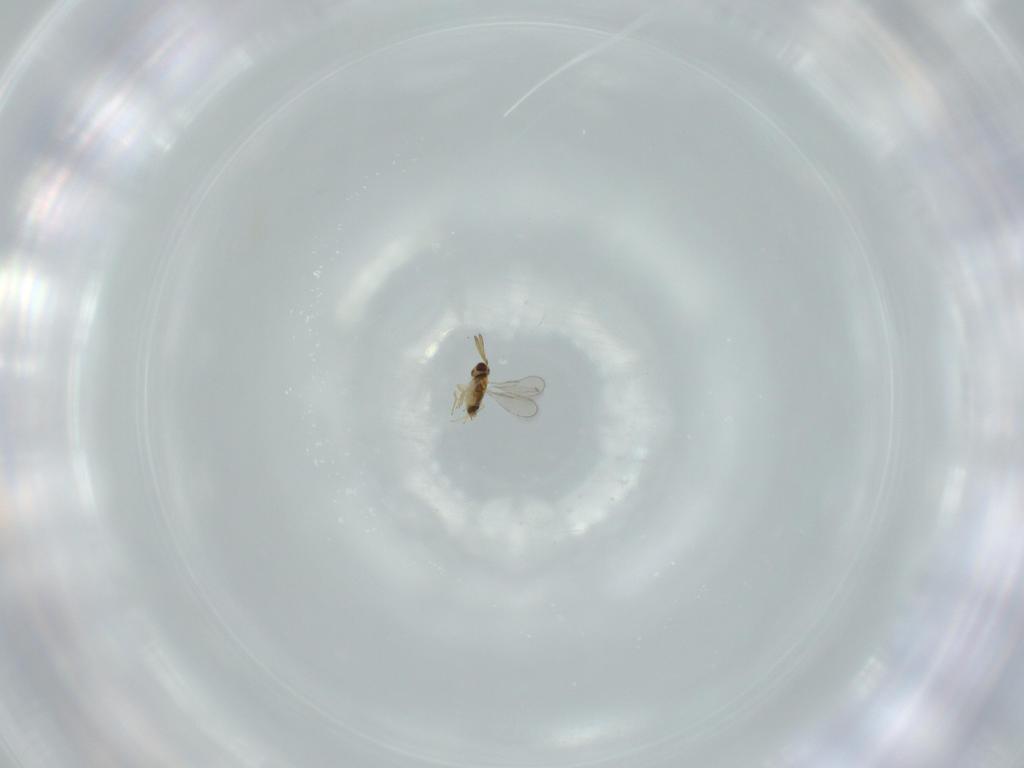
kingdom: Animalia
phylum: Arthropoda
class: Insecta
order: Hymenoptera
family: Aphelinidae
